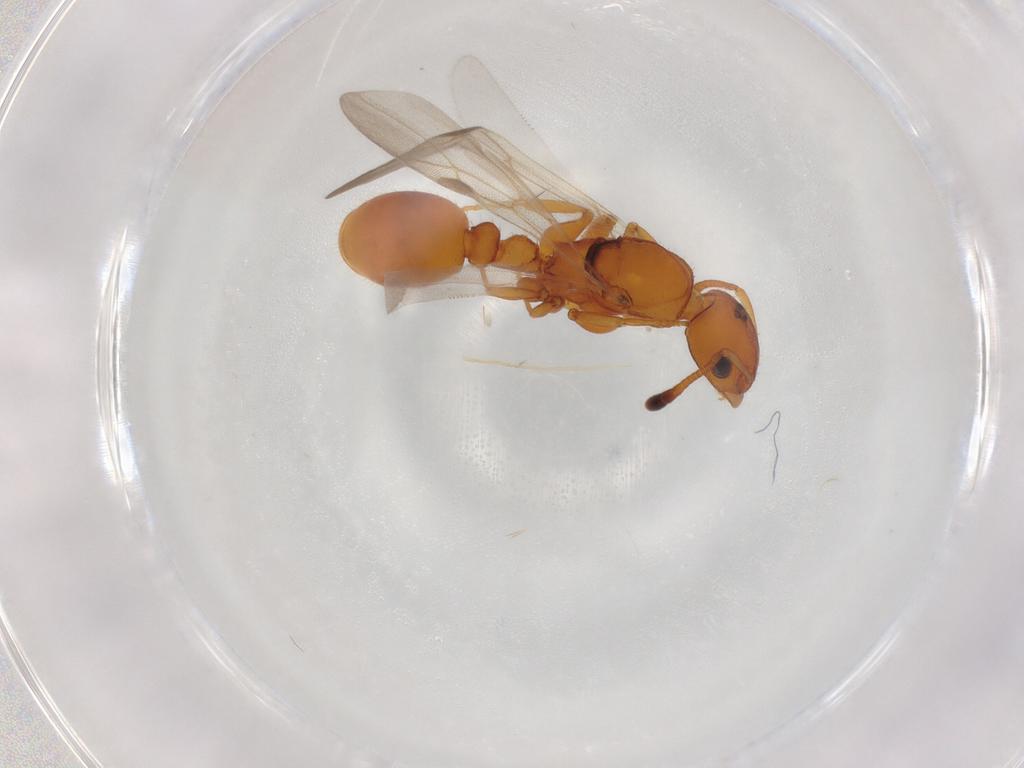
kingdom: Animalia
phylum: Arthropoda
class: Insecta
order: Hymenoptera
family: Formicidae
